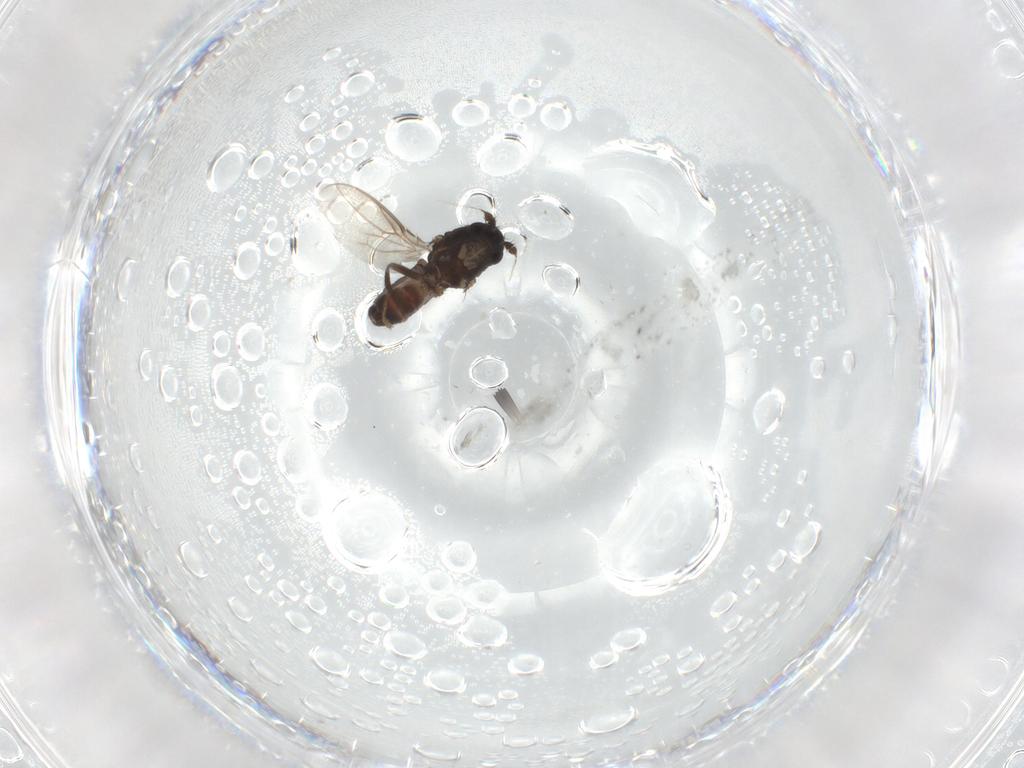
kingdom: Animalia
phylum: Arthropoda
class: Insecta
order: Diptera
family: Sphaeroceridae
